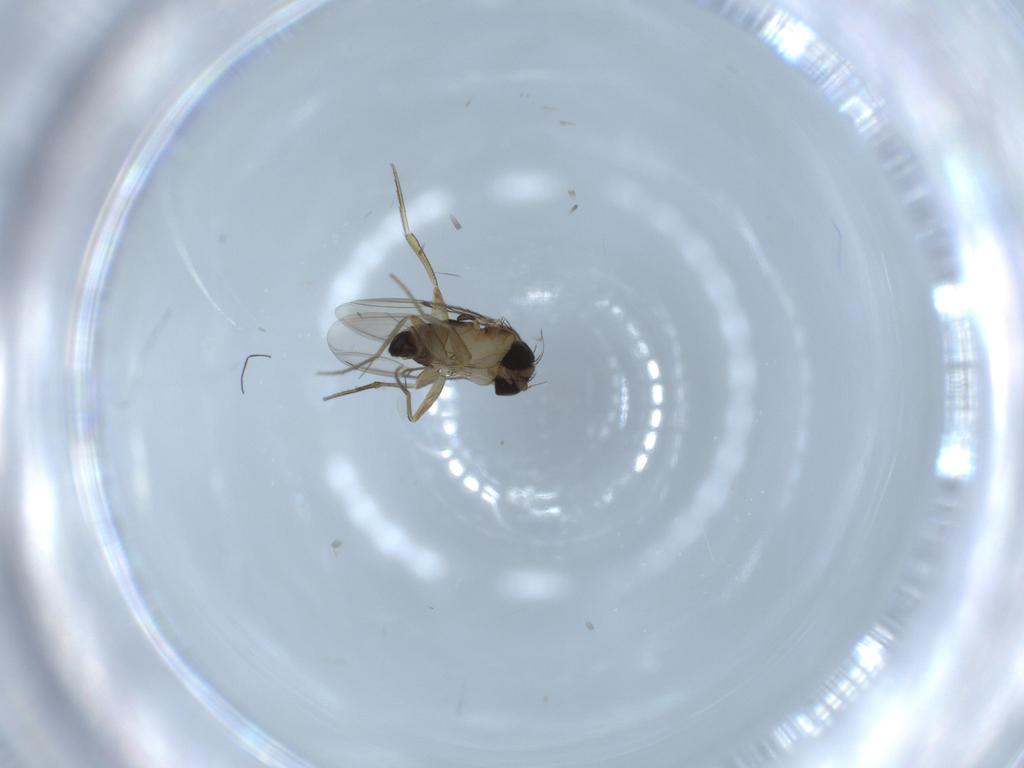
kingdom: Animalia
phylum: Arthropoda
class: Insecta
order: Diptera
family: Phoridae
